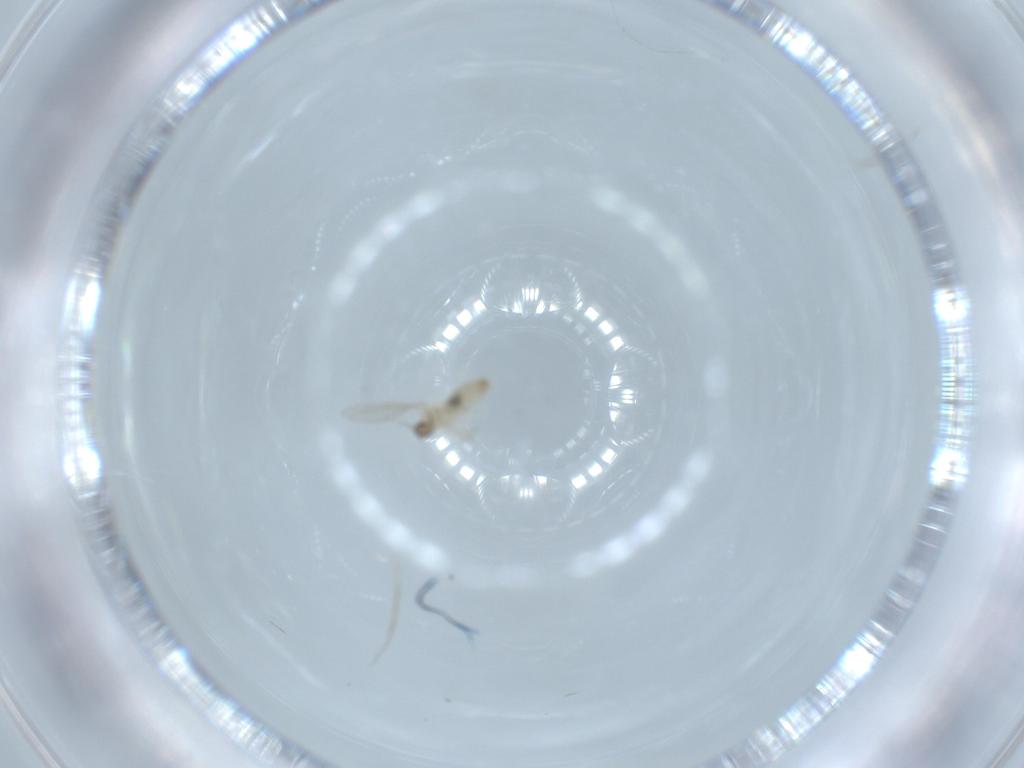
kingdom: Animalia
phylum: Arthropoda
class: Insecta
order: Diptera
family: Cecidomyiidae
